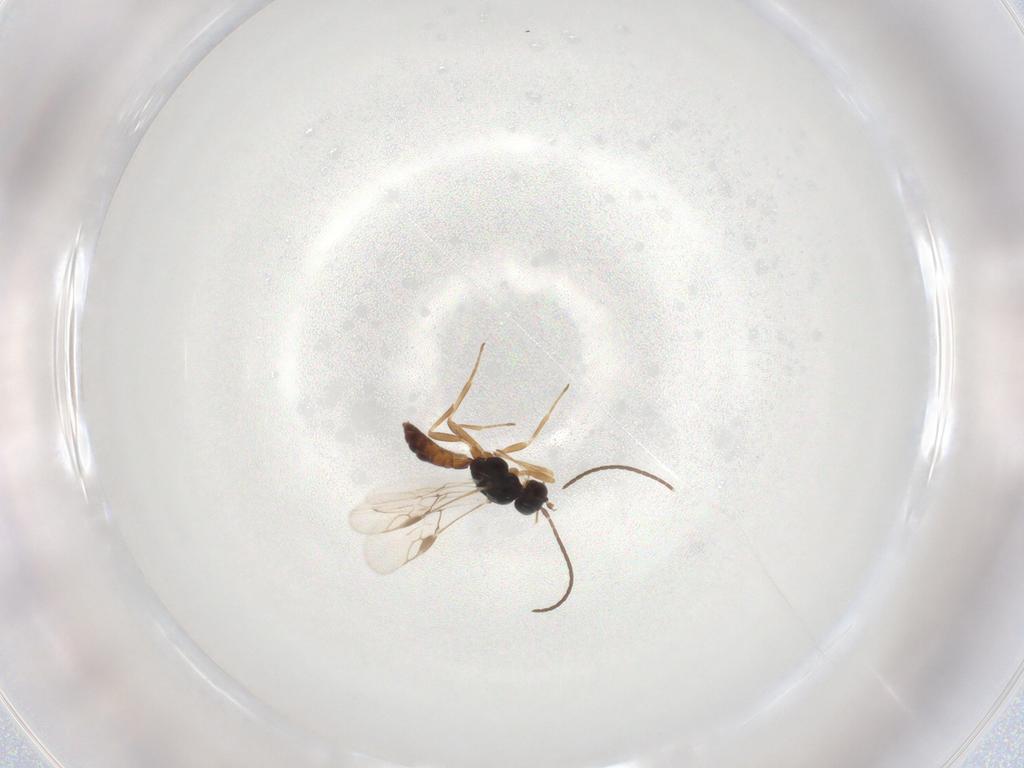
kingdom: Animalia
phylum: Arthropoda
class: Insecta
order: Hymenoptera
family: Braconidae
